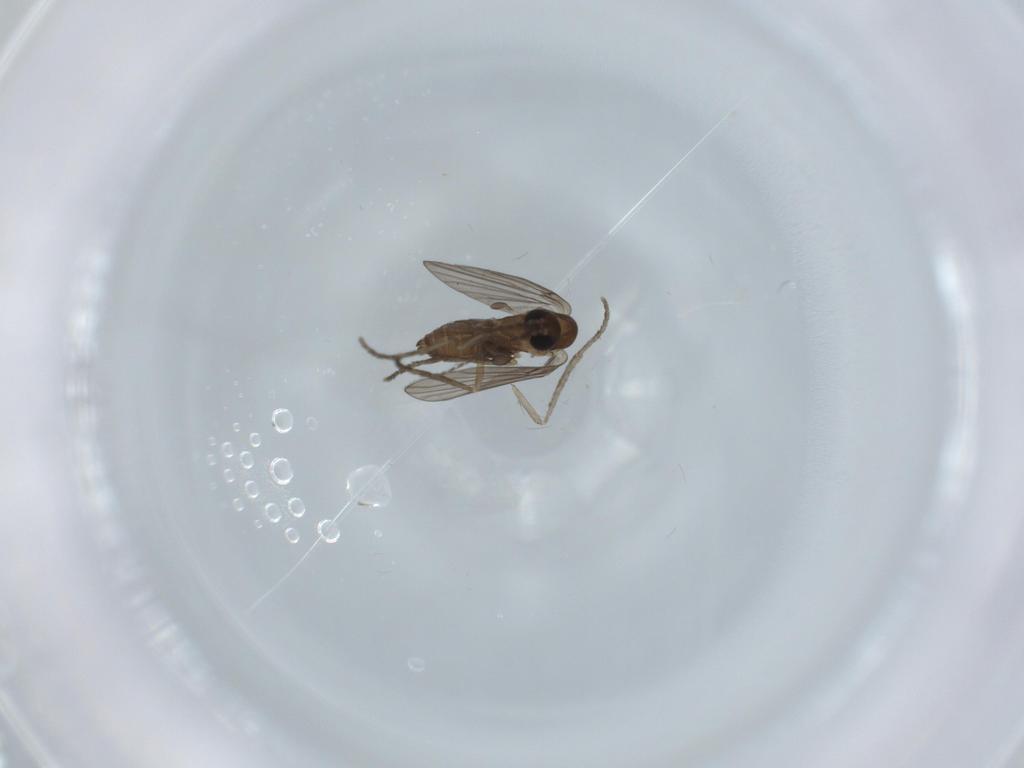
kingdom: Animalia
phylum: Arthropoda
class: Insecta
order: Diptera
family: Psychodidae
